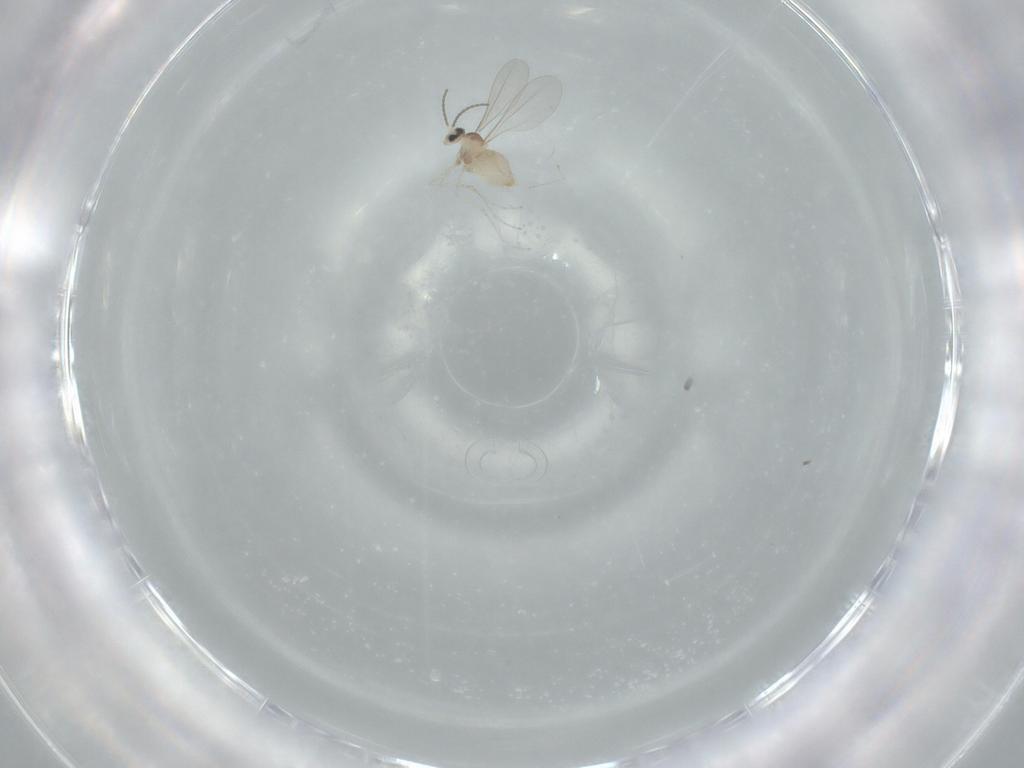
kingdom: Animalia
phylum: Arthropoda
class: Insecta
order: Diptera
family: Cecidomyiidae
